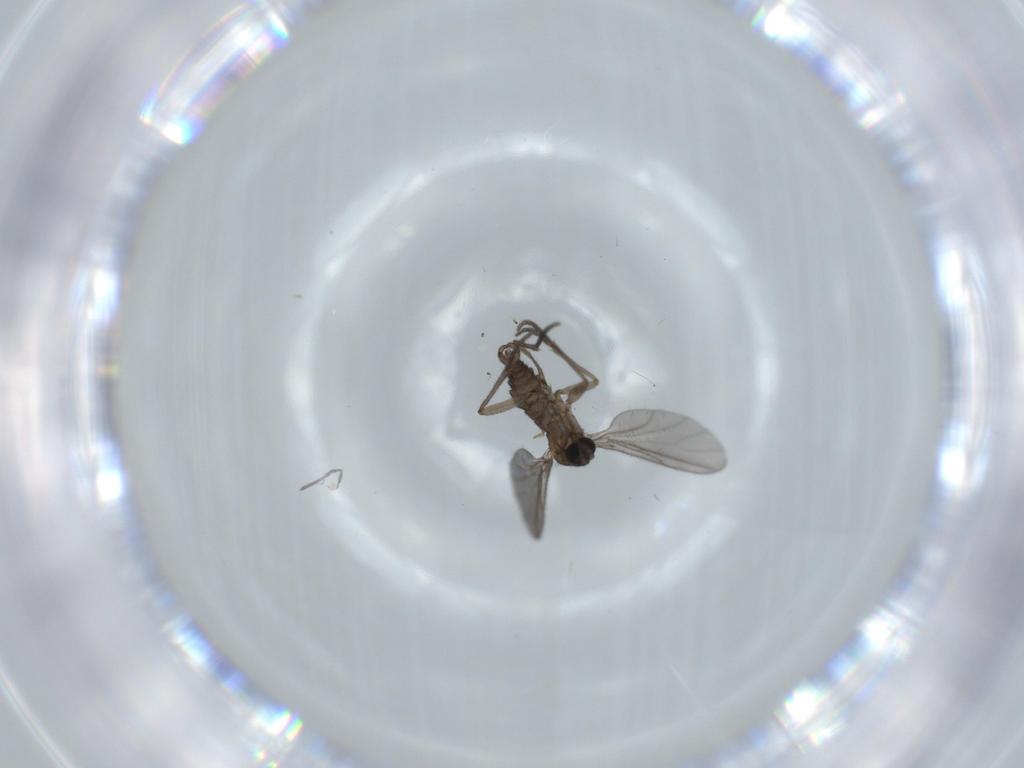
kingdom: Animalia
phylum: Arthropoda
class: Insecta
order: Diptera
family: Sciaridae
